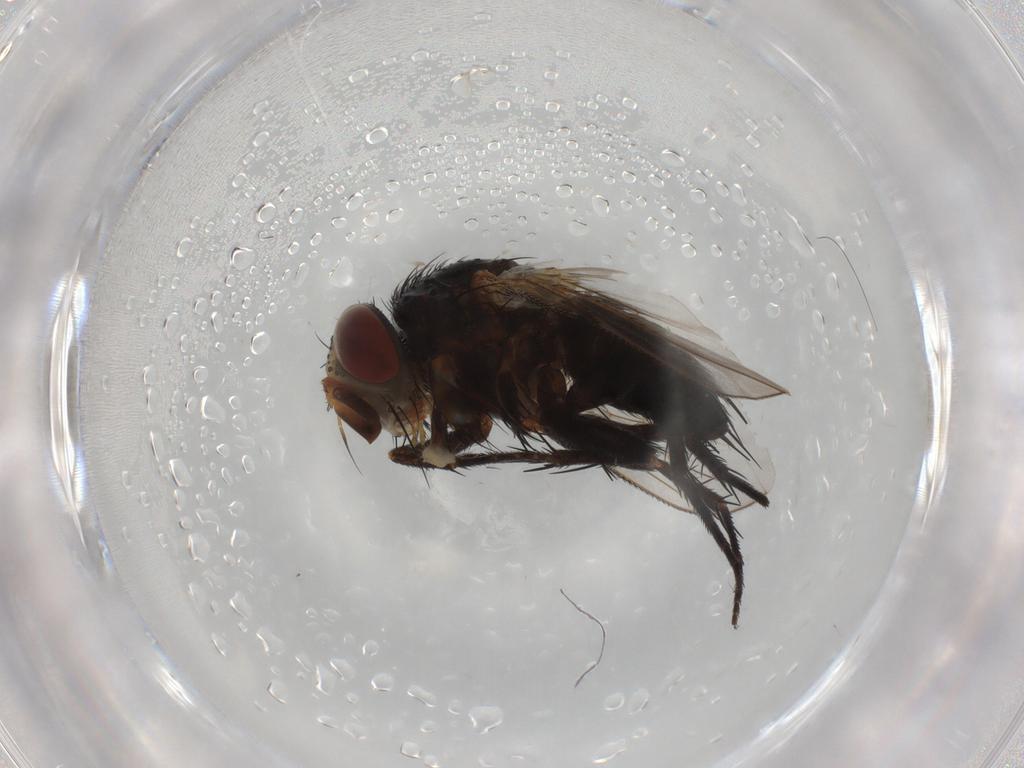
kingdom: Animalia
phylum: Arthropoda
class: Insecta
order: Diptera
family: Tachinidae
